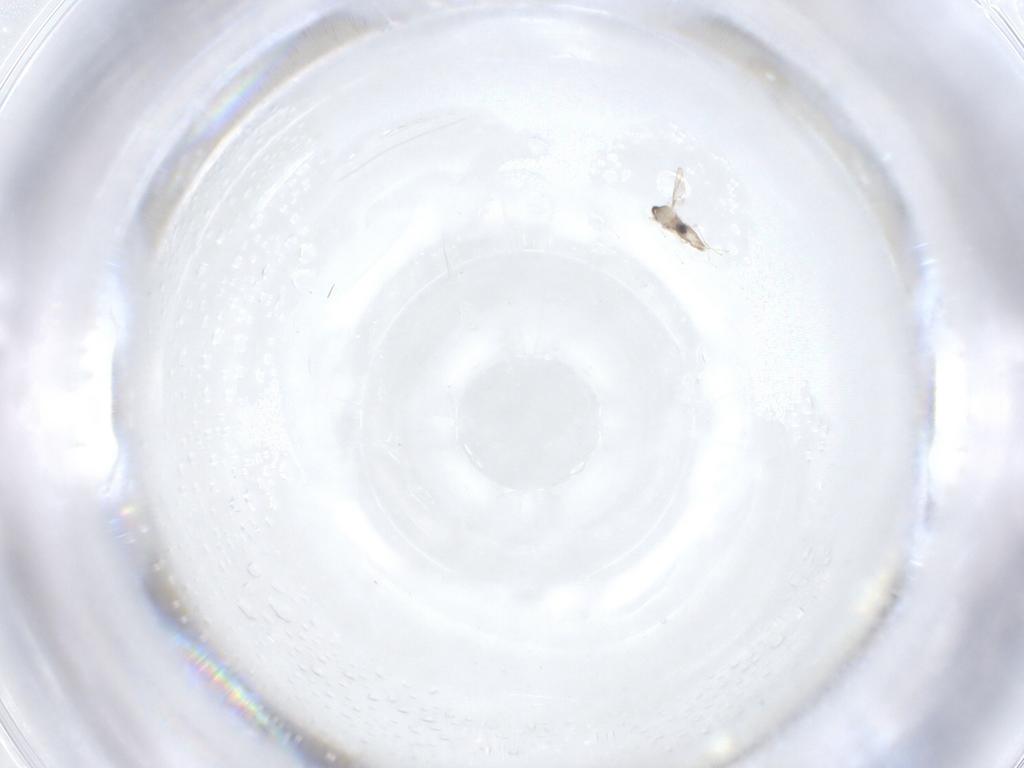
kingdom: Animalia
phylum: Arthropoda
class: Insecta
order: Diptera
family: Cecidomyiidae
